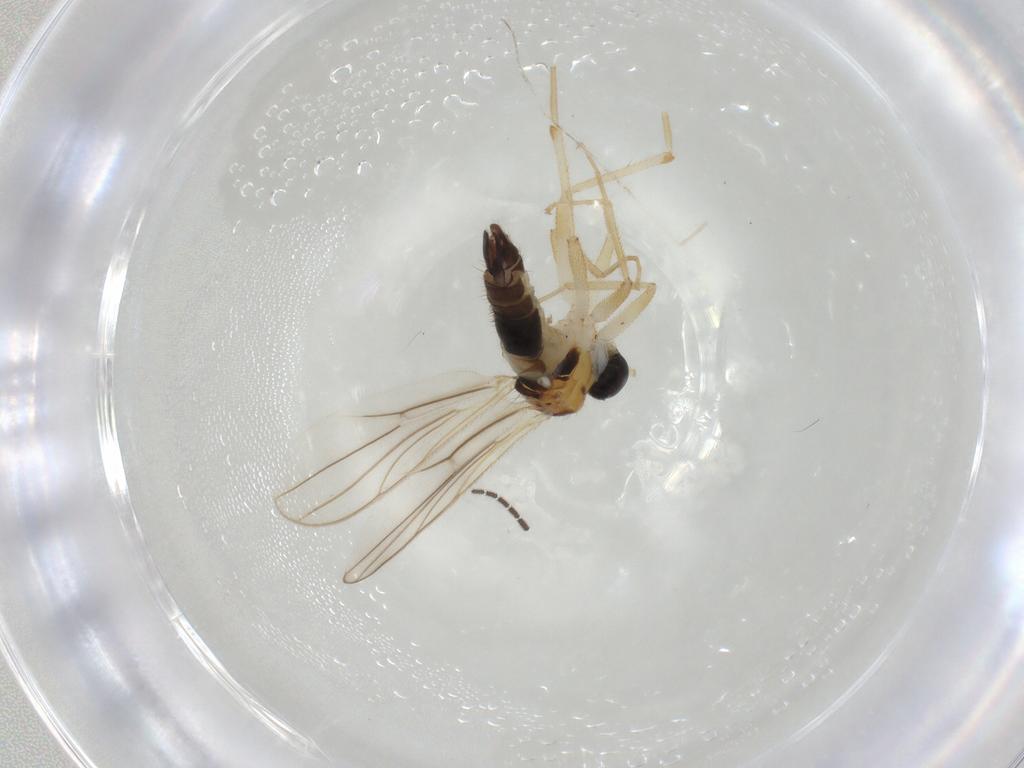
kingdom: Animalia
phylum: Arthropoda
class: Insecta
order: Diptera
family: Hybotidae
